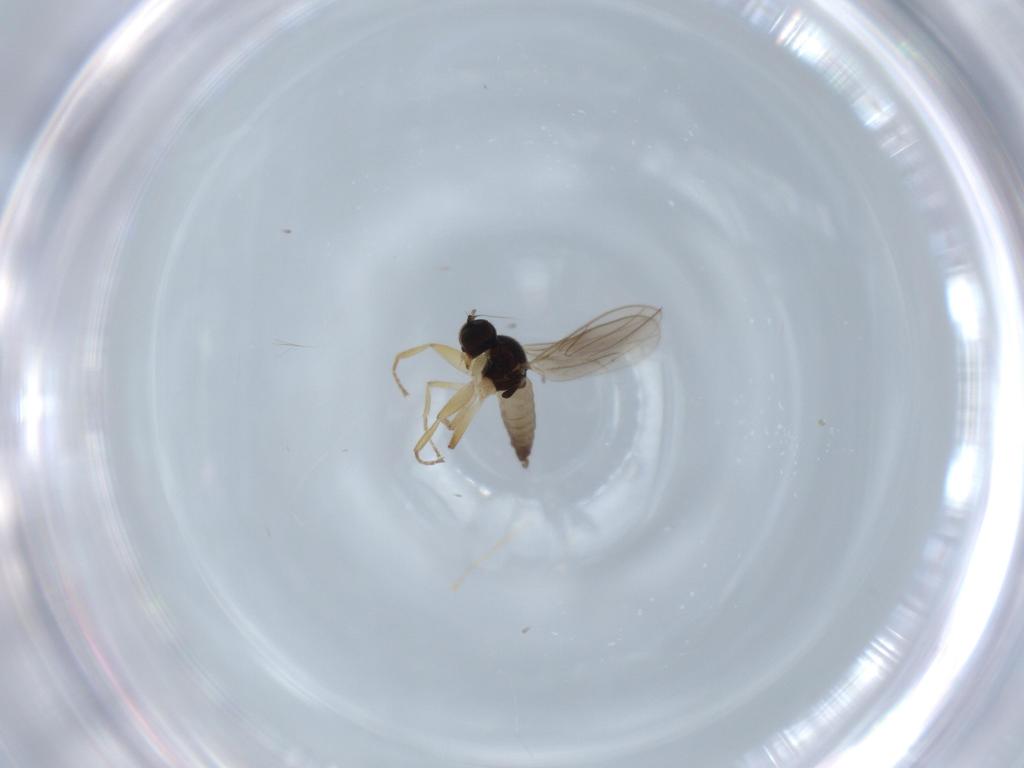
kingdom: Animalia
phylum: Arthropoda
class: Insecta
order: Diptera
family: Hybotidae
